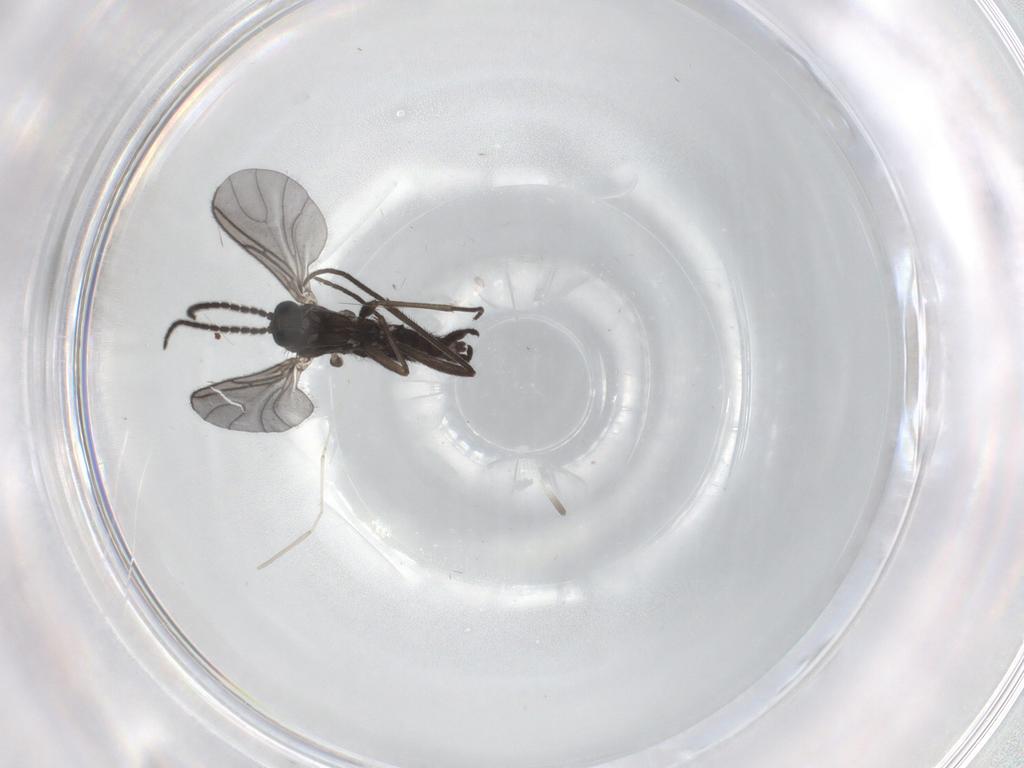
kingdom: Animalia
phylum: Arthropoda
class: Insecta
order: Diptera
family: Sciaridae
